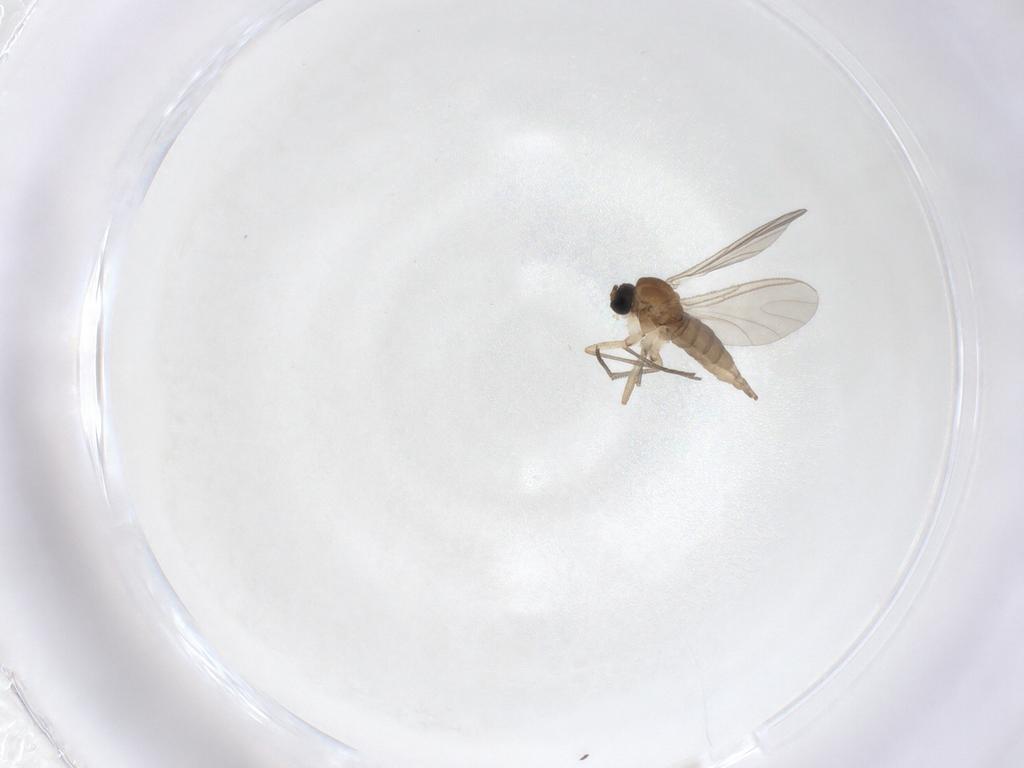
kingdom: Animalia
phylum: Arthropoda
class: Insecta
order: Diptera
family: Sciaridae
